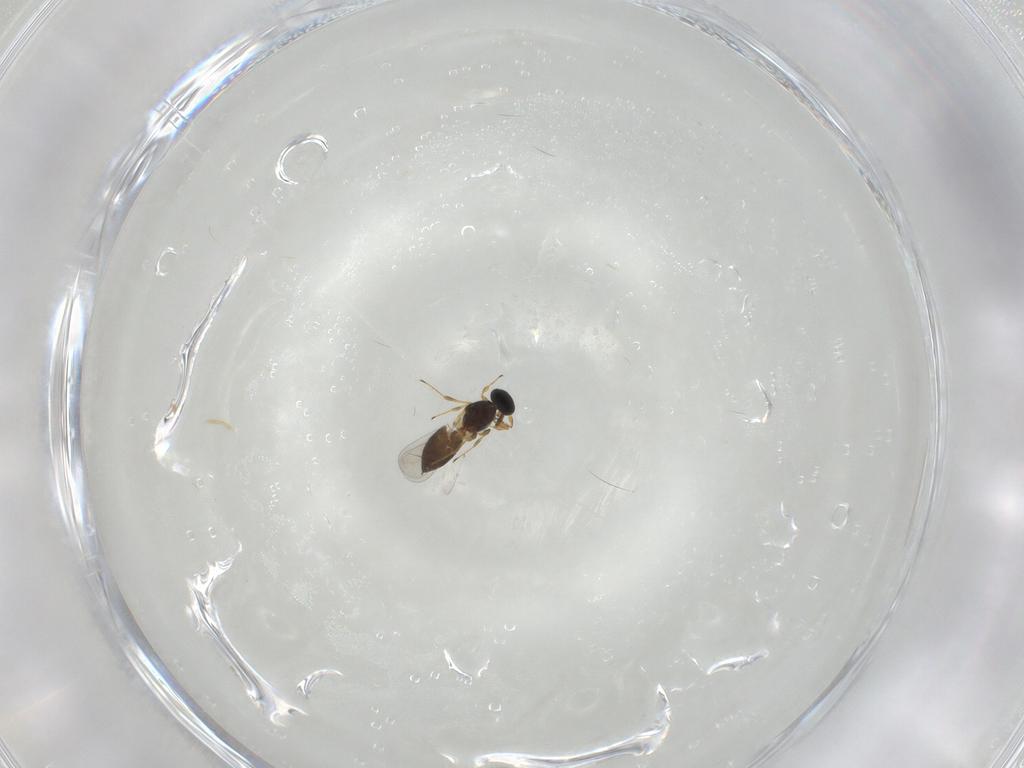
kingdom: Animalia
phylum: Arthropoda
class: Insecta
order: Hymenoptera
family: Platygastridae
